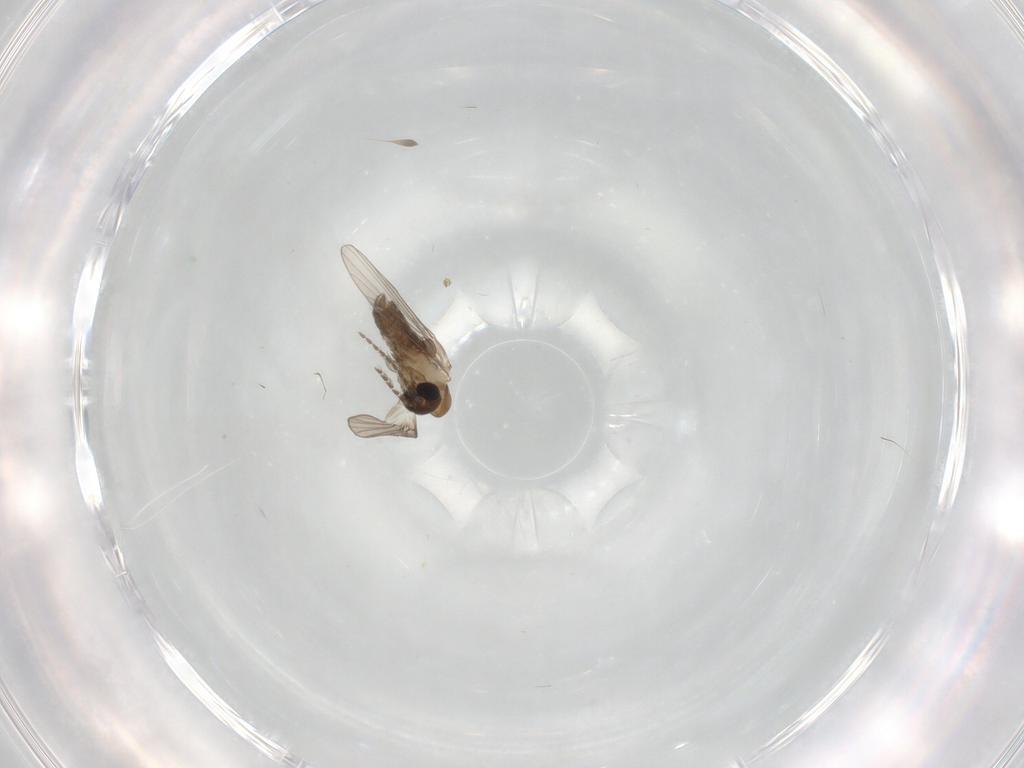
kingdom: Animalia
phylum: Arthropoda
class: Insecta
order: Diptera
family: Psychodidae
